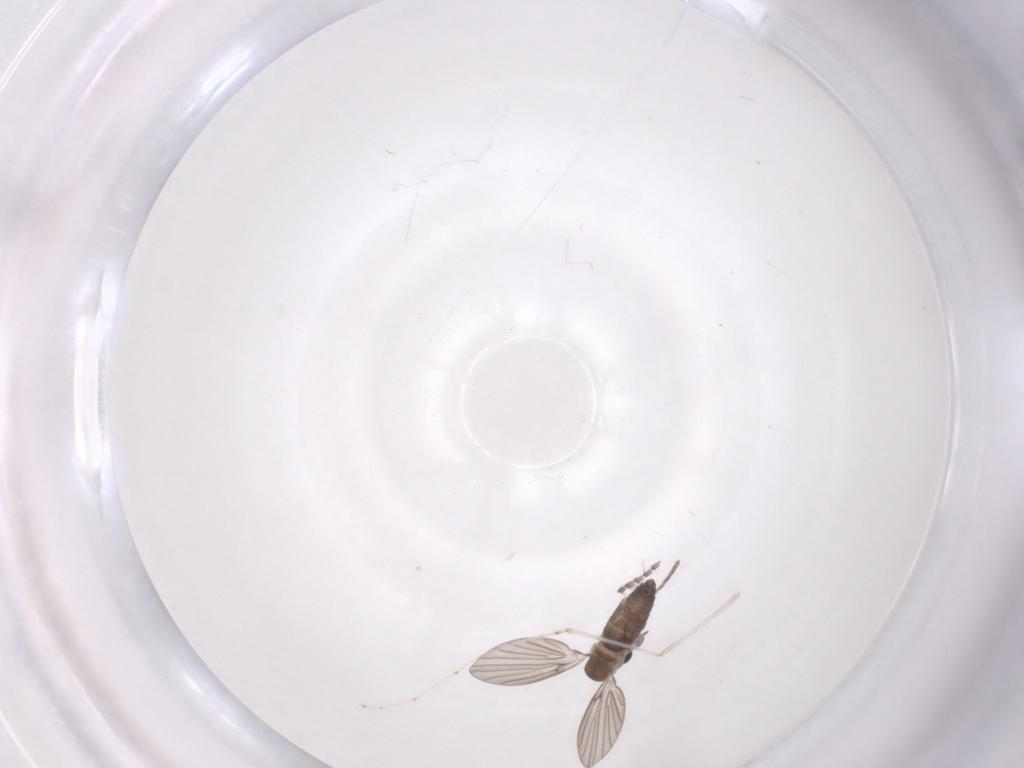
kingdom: Animalia
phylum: Arthropoda
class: Insecta
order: Diptera
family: Cecidomyiidae
